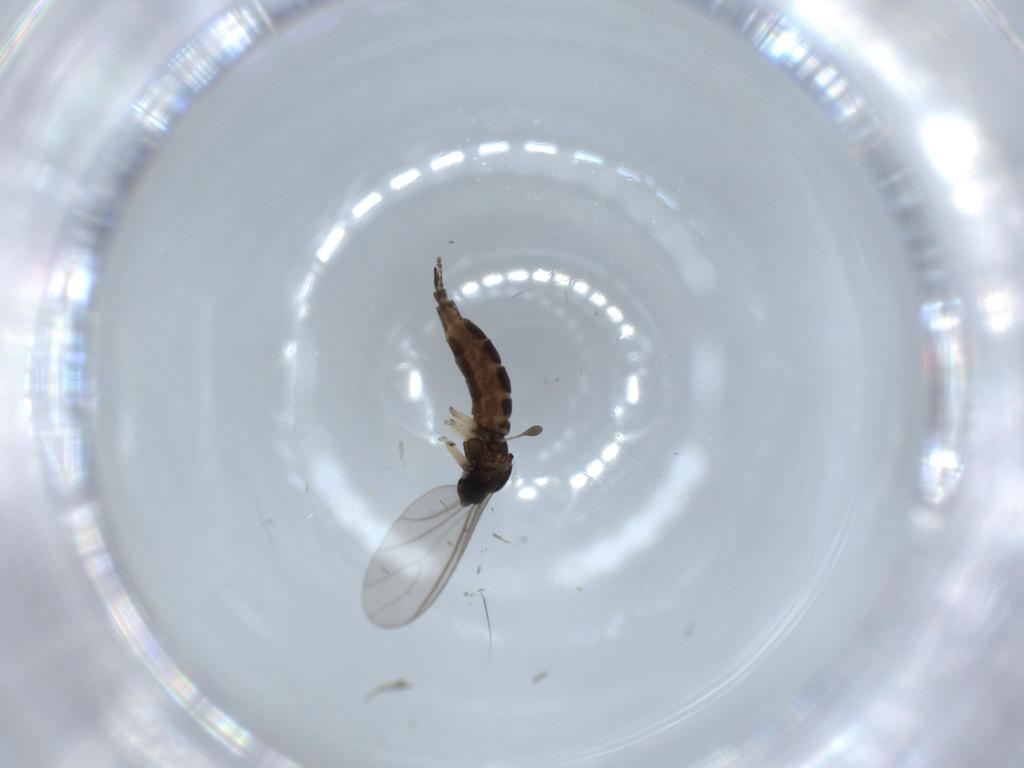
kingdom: Animalia
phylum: Arthropoda
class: Insecta
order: Diptera
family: Cecidomyiidae
